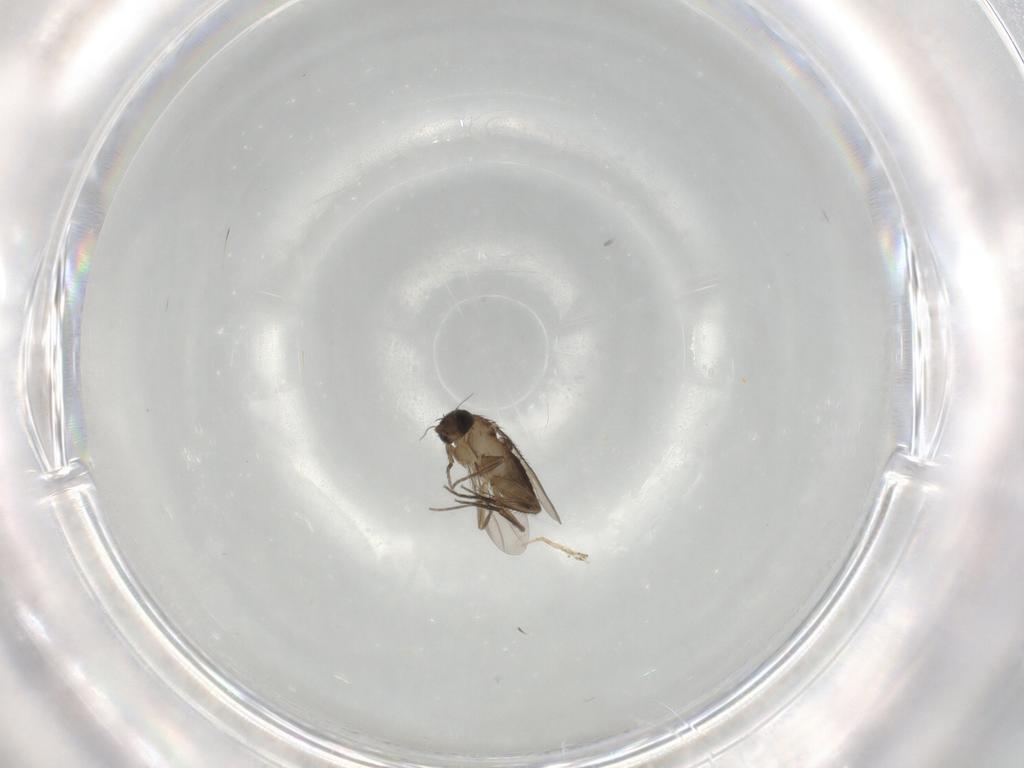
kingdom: Animalia
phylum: Arthropoda
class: Insecta
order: Diptera
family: Phoridae
